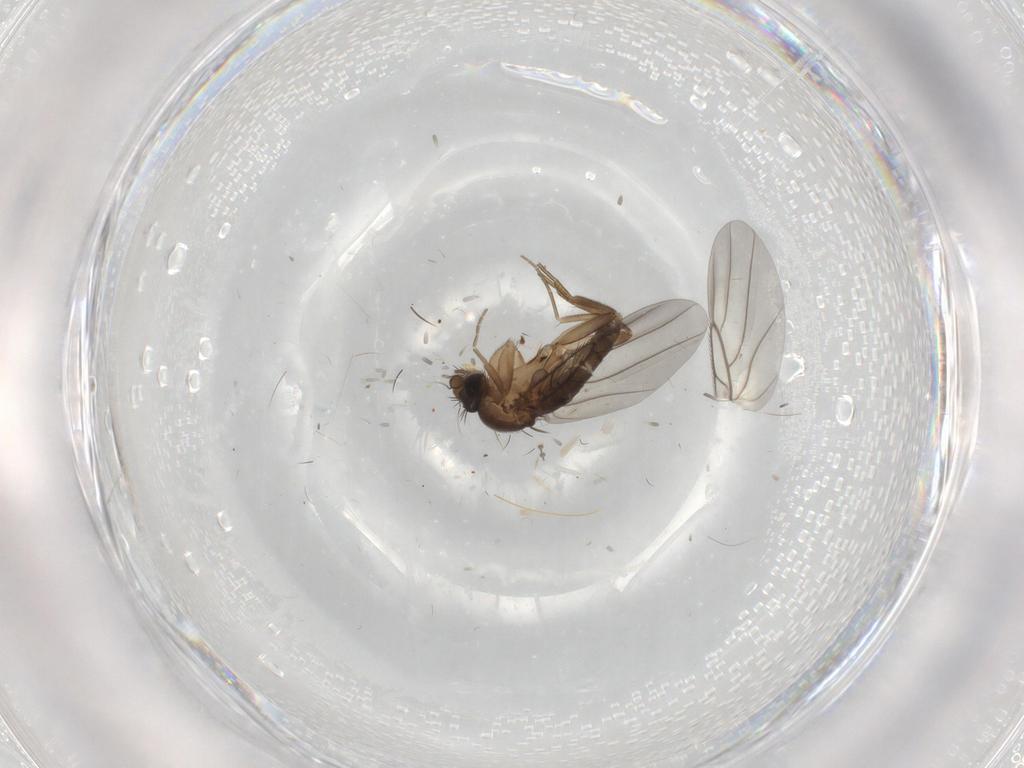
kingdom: Animalia
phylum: Arthropoda
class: Insecta
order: Diptera
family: Phoridae
